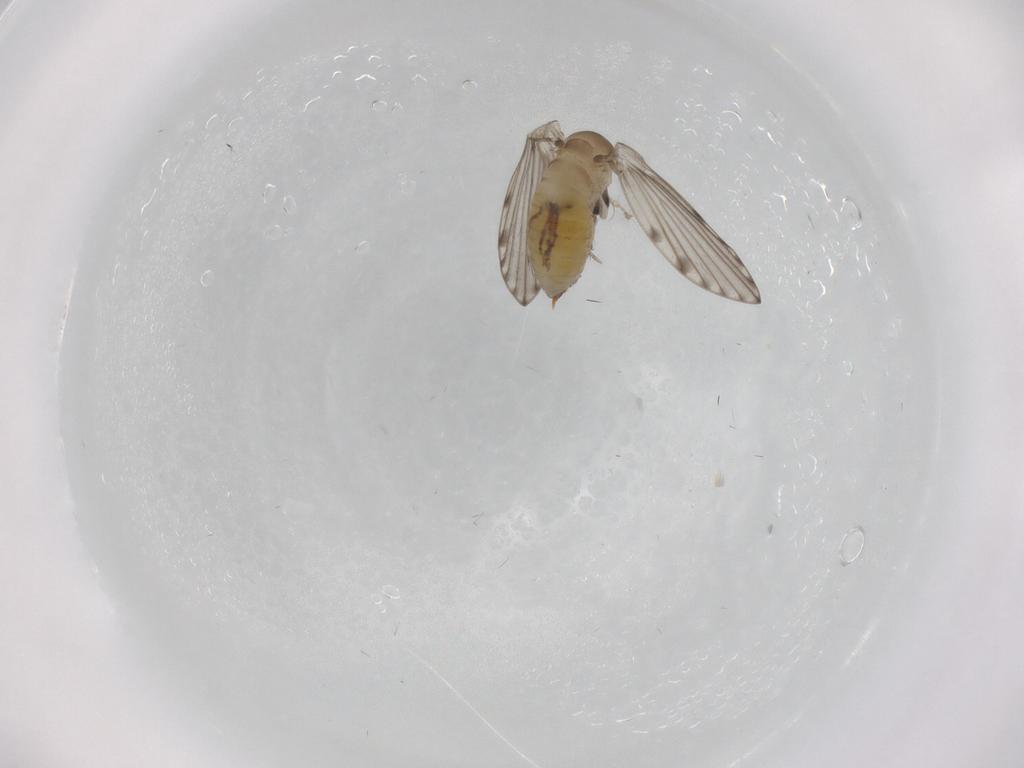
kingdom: Animalia
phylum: Arthropoda
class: Insecta
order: Diptera
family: Psychodidae
